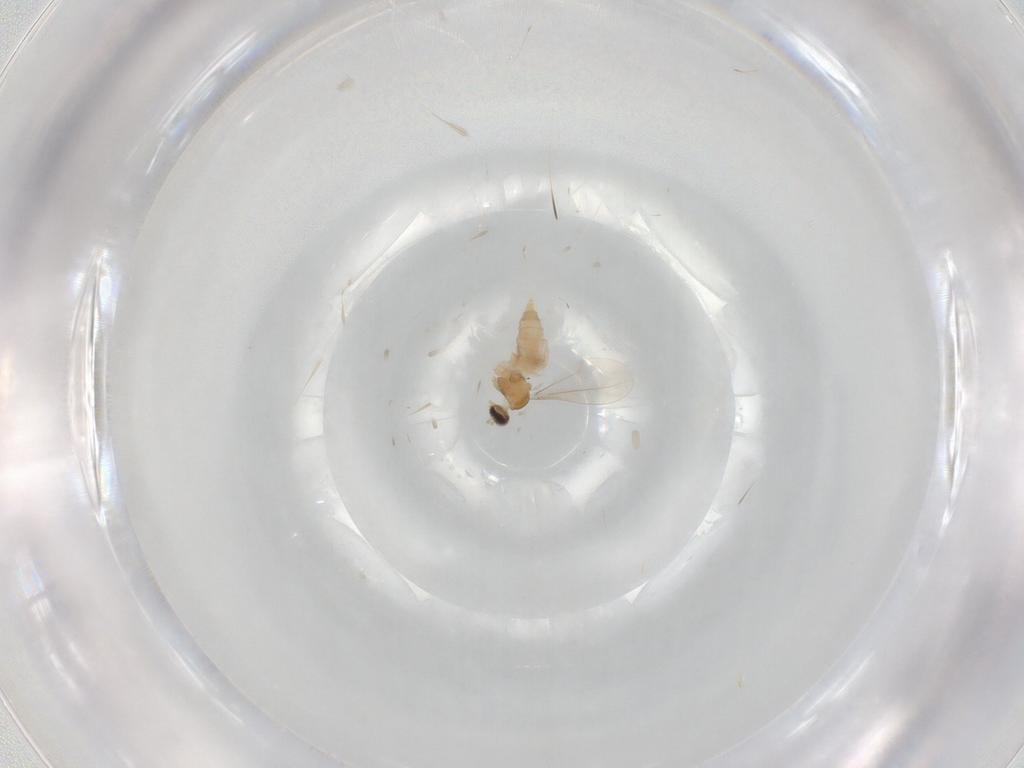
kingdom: Animalia
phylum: Arthropoda
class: Insecta
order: Diptera
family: Cecidomyiidae
